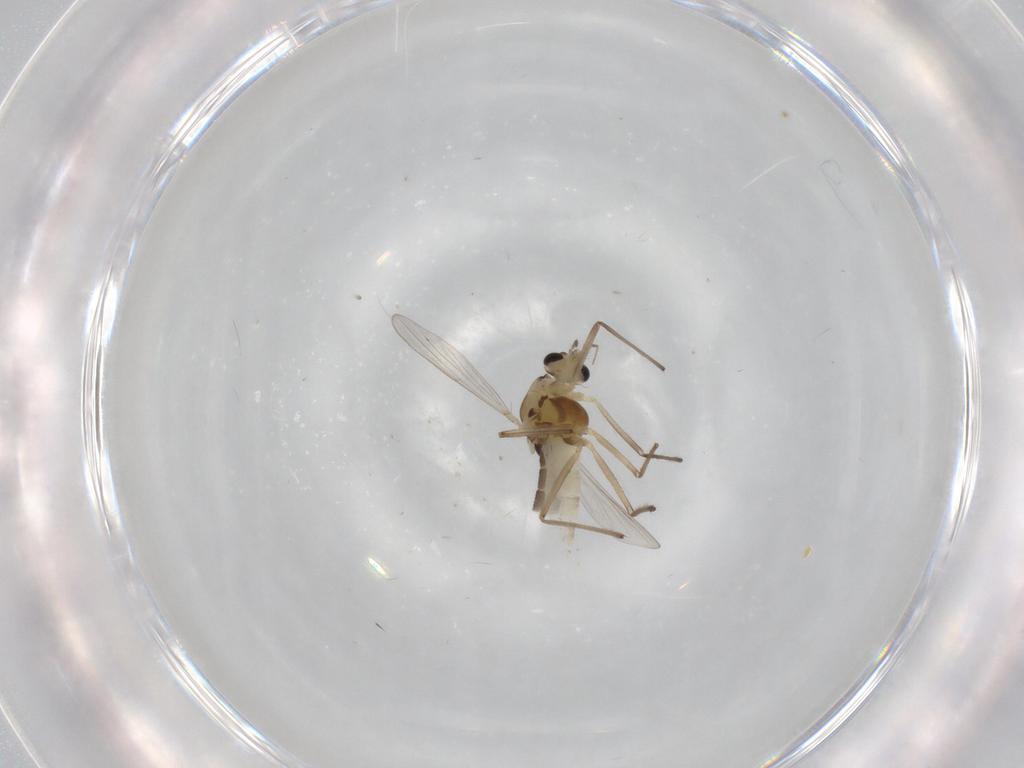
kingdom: Animalia
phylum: Arthropoda
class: Insecta
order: Diptera
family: Chironomidae
